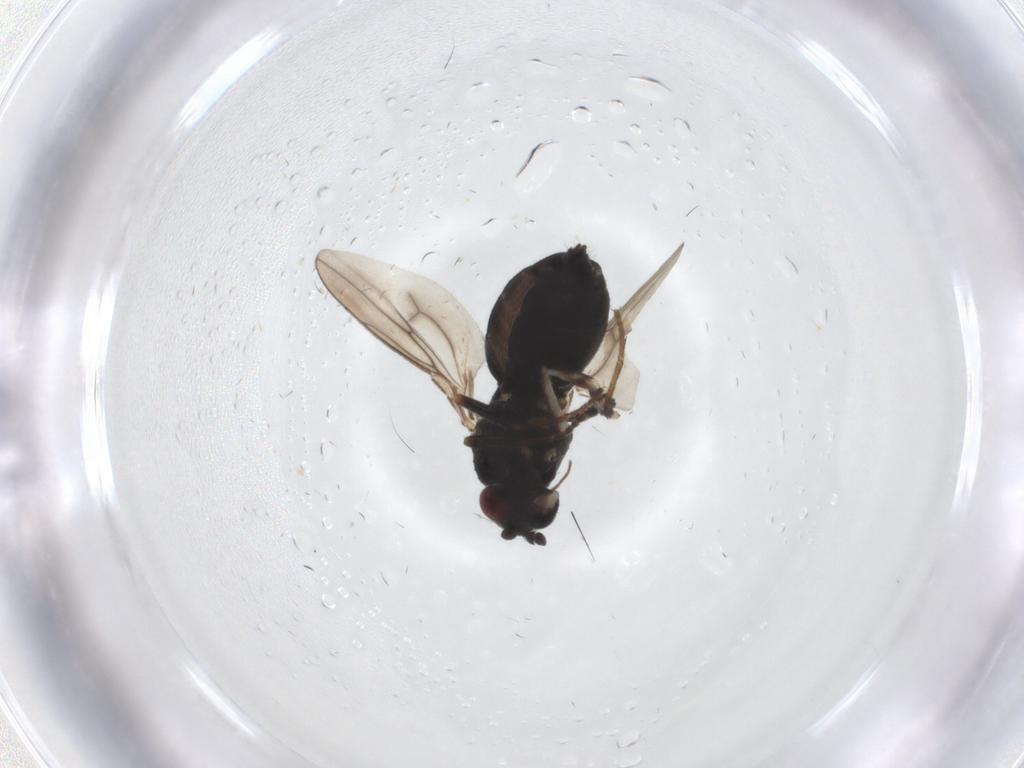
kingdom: Animalia
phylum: Arthropoda
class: Insecta
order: Diptera
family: Sphaeroceridae
